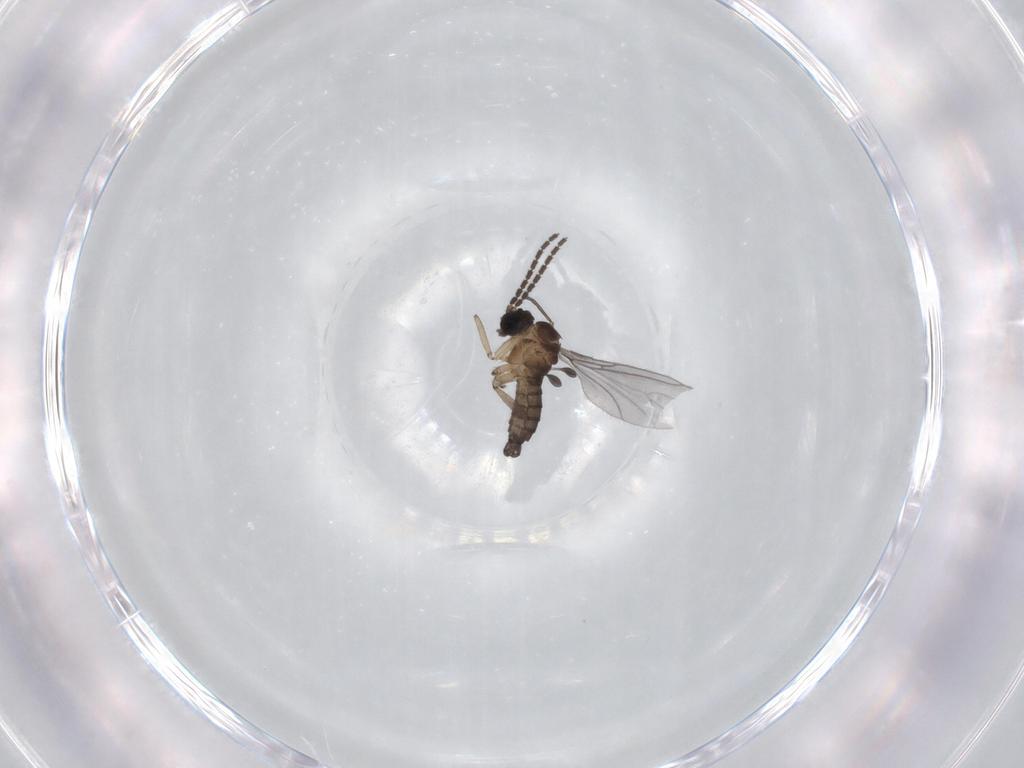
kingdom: Animalia
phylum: Arthropoda
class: Insecta
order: Diptera
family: Sciaridae
